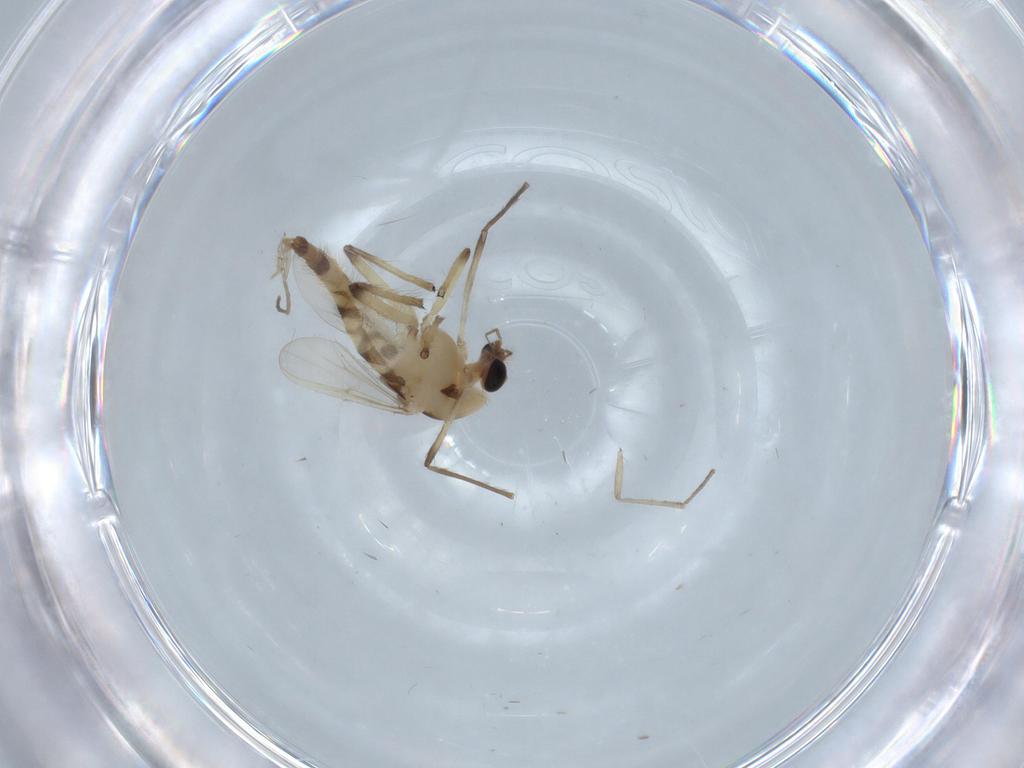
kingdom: Animalia
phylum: Arthropoda
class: Insecta
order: Diptera
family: Chironomidae
